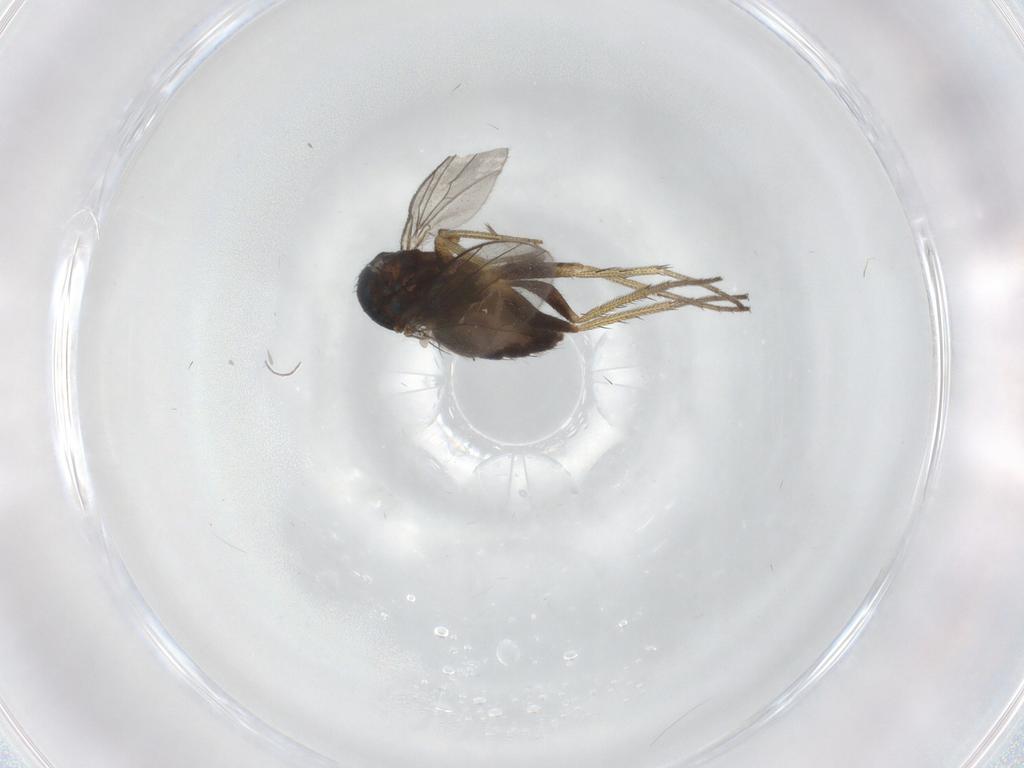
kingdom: Animalia
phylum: Arthropoda
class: Insecta
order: Diptera
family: Dolichopodidae
